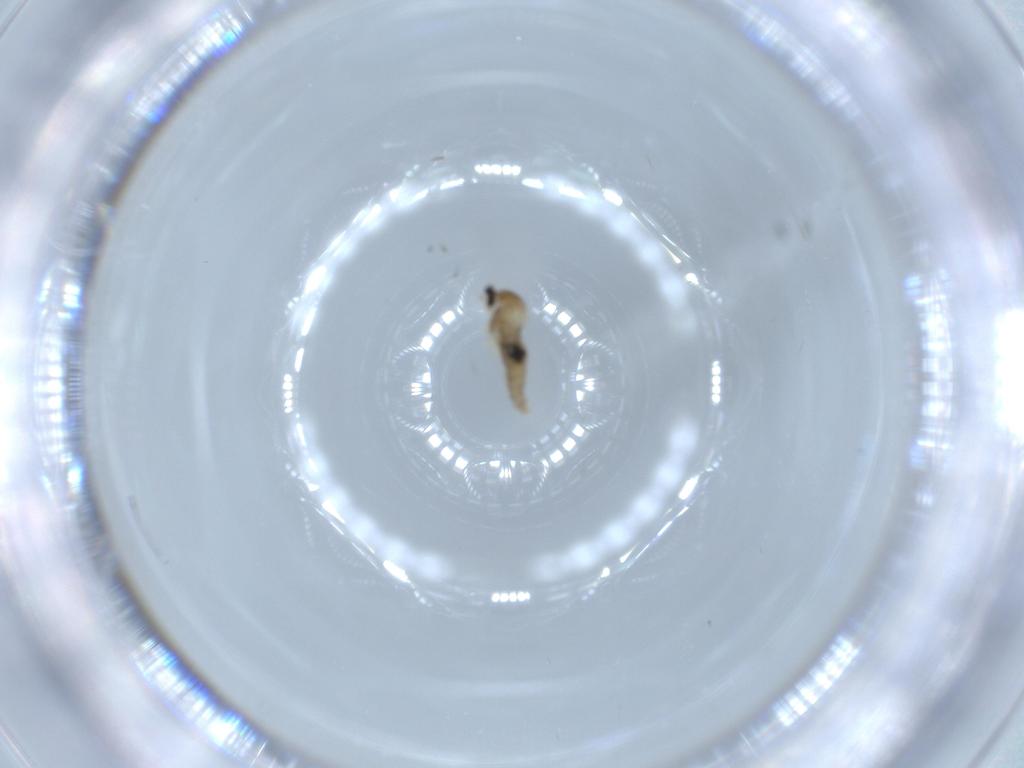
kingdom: Animalia
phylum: Arthropoda
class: Insecta
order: Diptera
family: Cecidomyiidae
